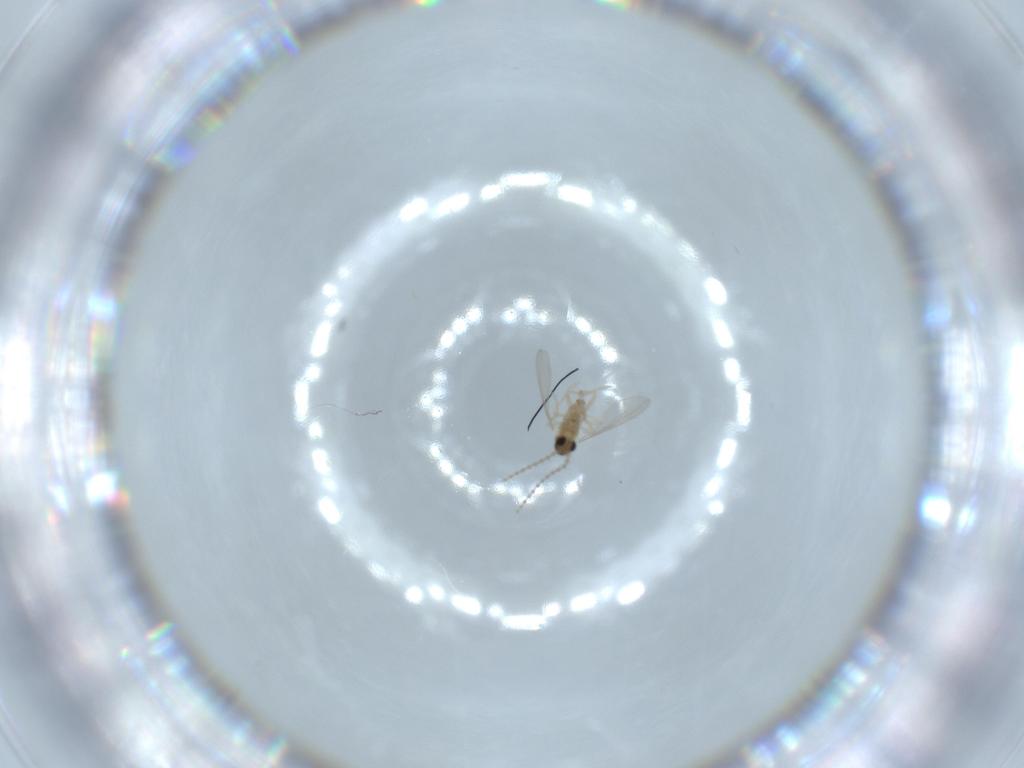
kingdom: Animalia
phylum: Arthropoda
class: Insecta
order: Diptera
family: Cecidomyiidae
